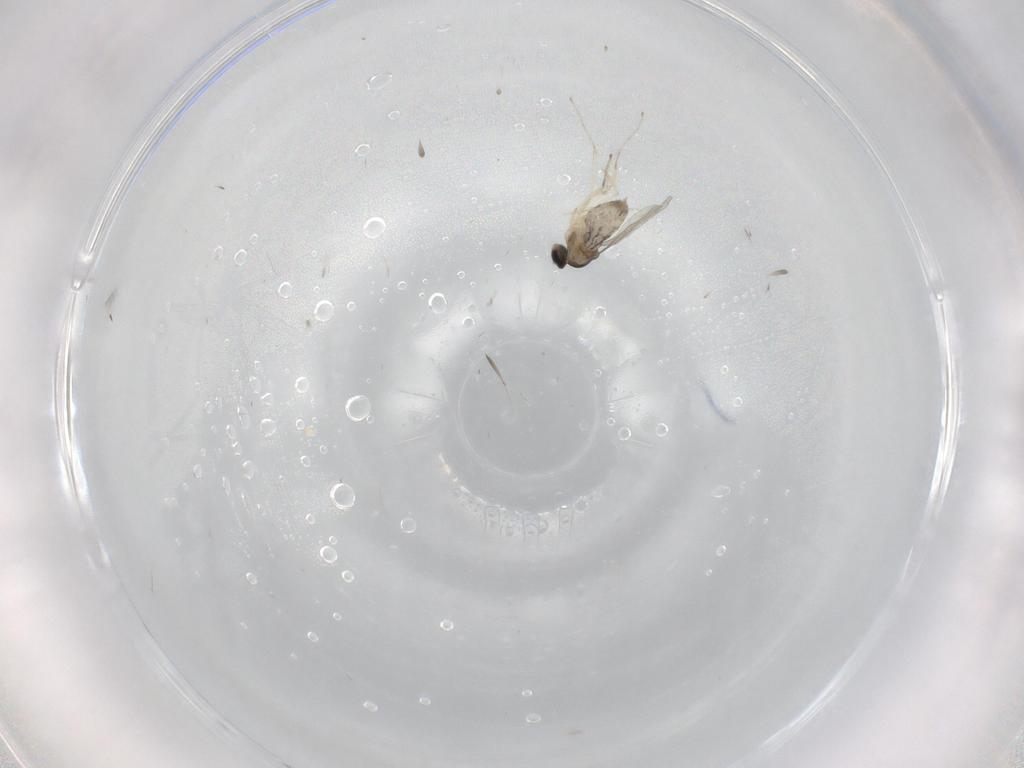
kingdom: Animalia
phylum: Arthropoda
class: Insecta
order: Diptera
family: Cecidomyiidae
